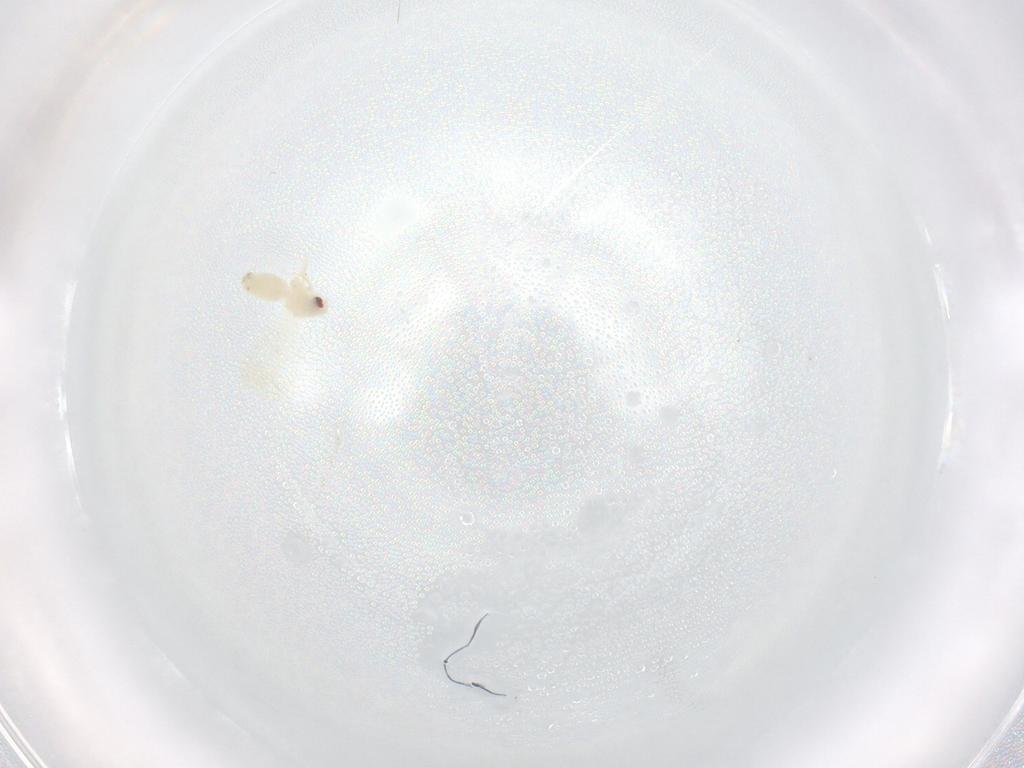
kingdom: Animalia
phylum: Arthropoda
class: Insecta
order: Hemiptera
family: Aleyrodidae
